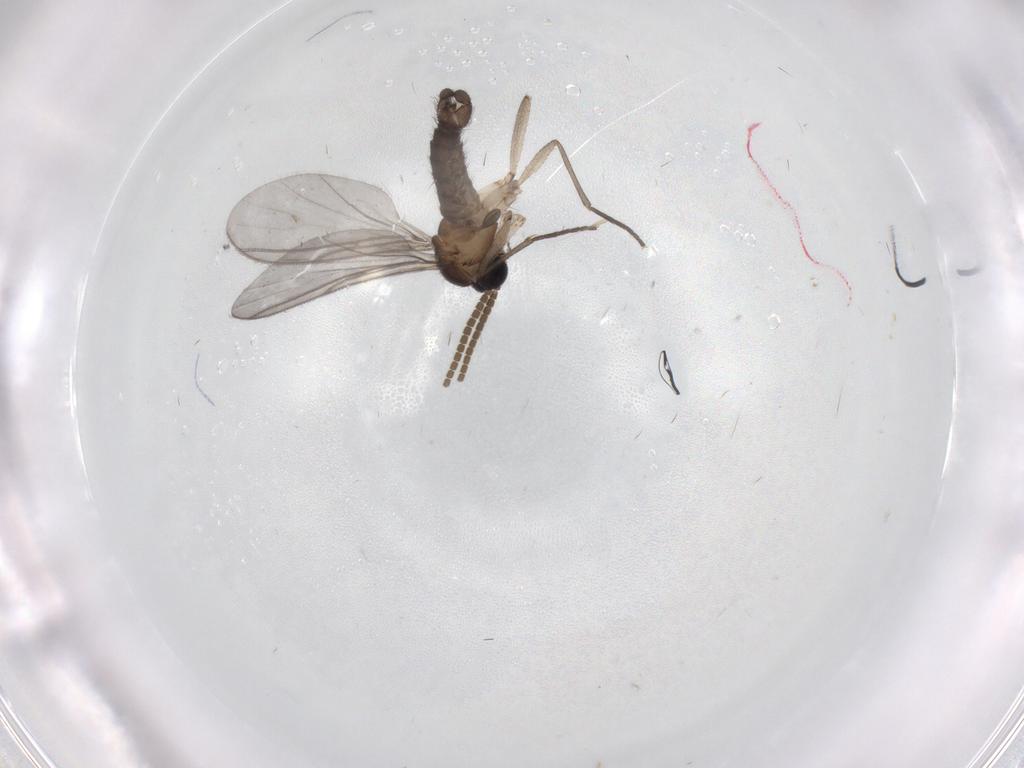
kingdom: Animalia
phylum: Arthropoda
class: Insecta
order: Diptera
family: Chironomidae
